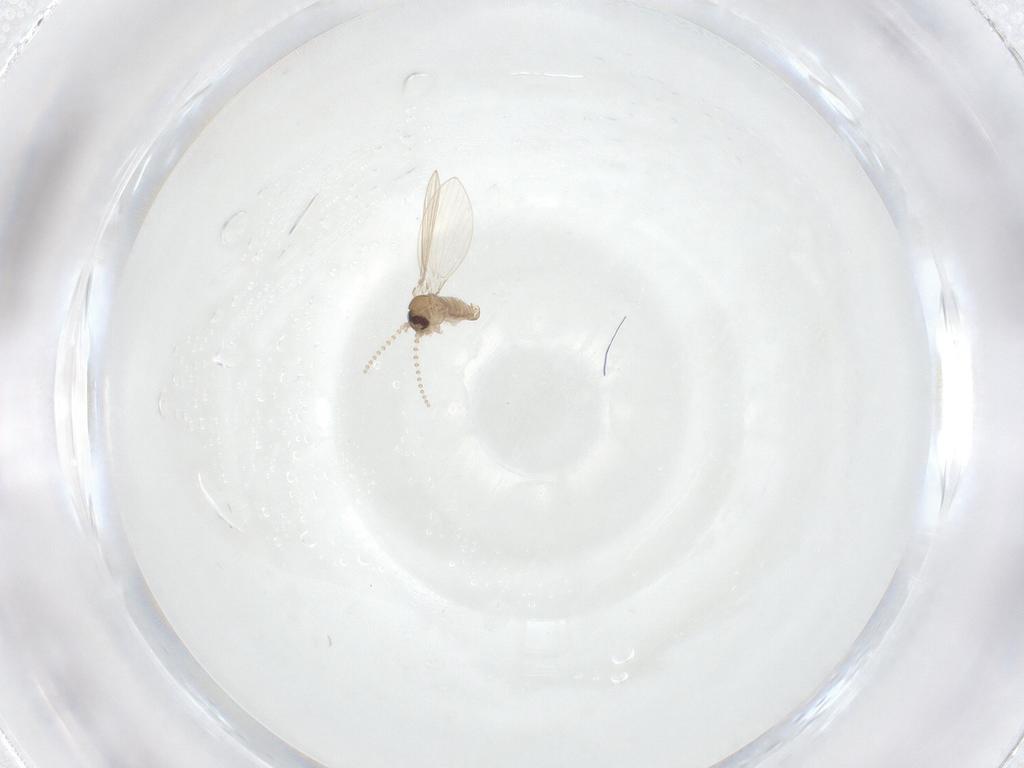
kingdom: Animalia
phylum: Arthropoda
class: Insecta
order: Diptera
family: Psychodidae
